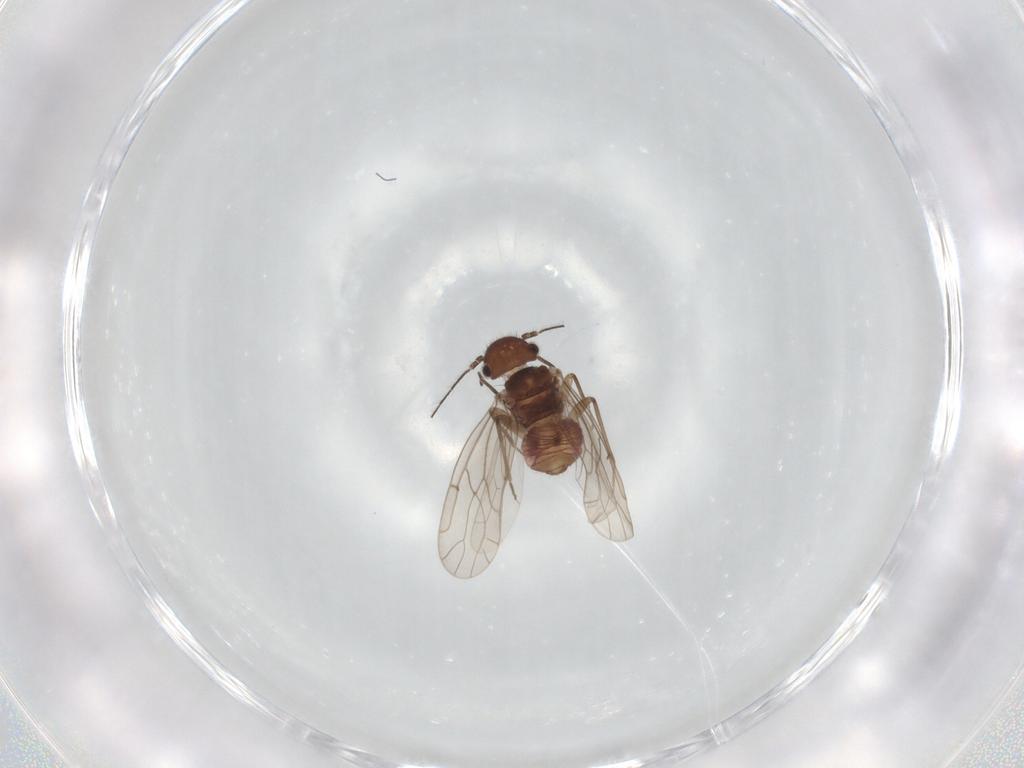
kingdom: Animalia
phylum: Arthropoda
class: Insecta
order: Psocodea
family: Ectopsocidae
